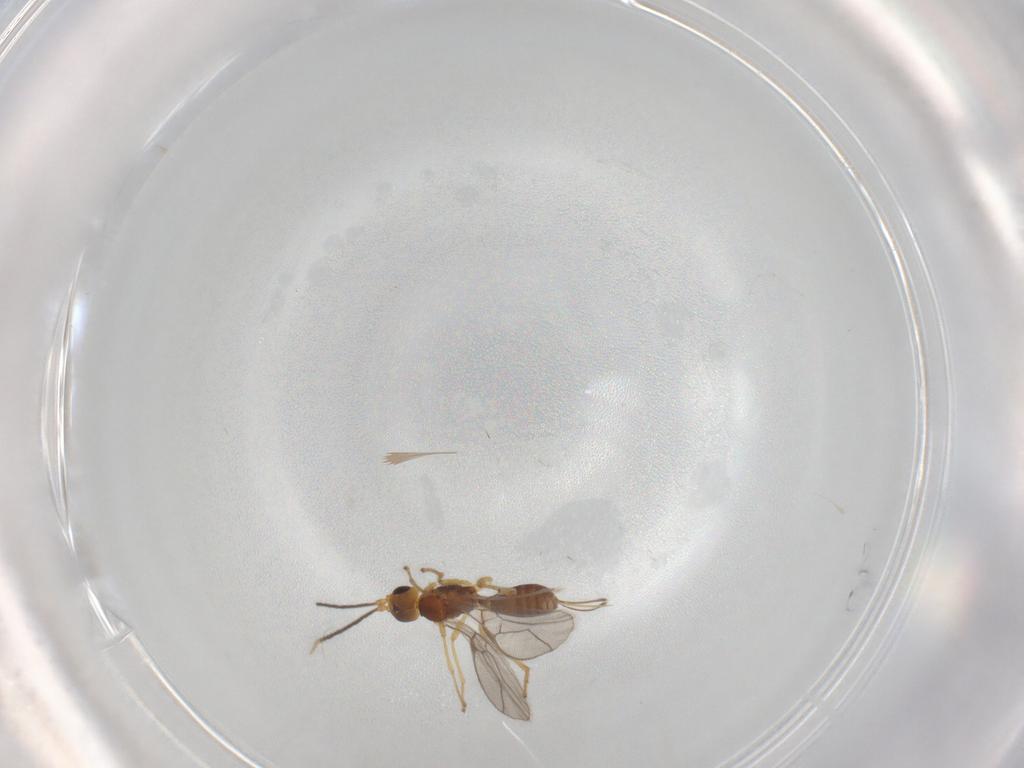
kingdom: Animalia
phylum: Arthropoda
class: Insecta
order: Hymenoptera
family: Braconidae
